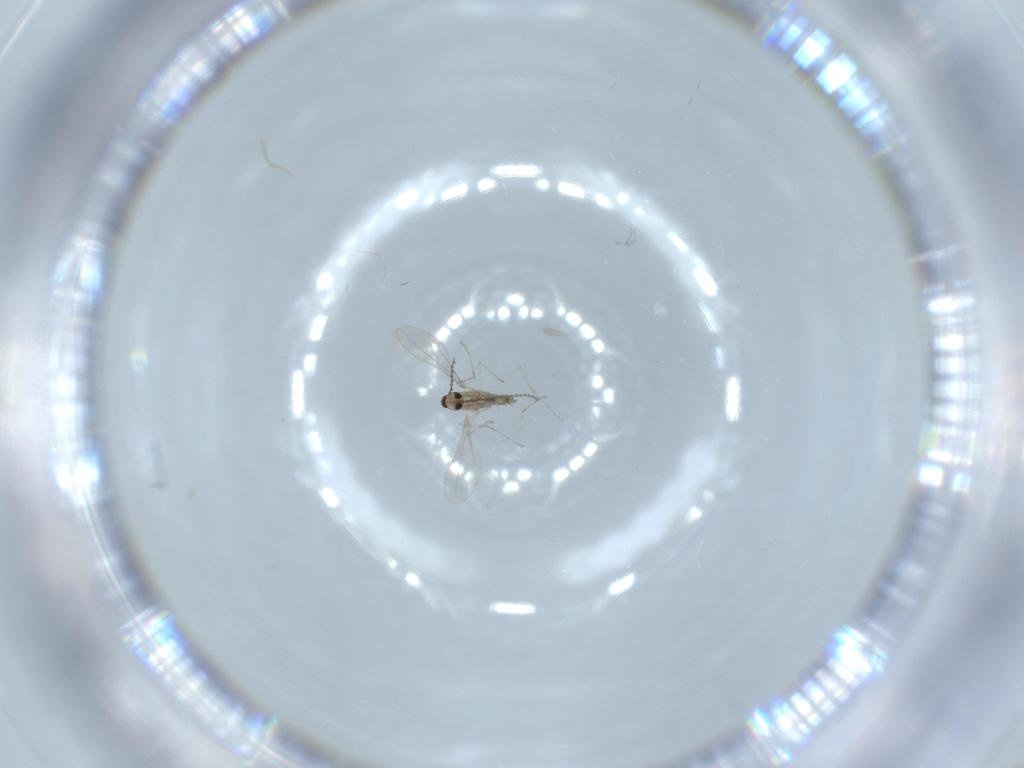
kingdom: Animalia
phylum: Arthropoda
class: Insecta
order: Diptera
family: Cecidomyiidae
